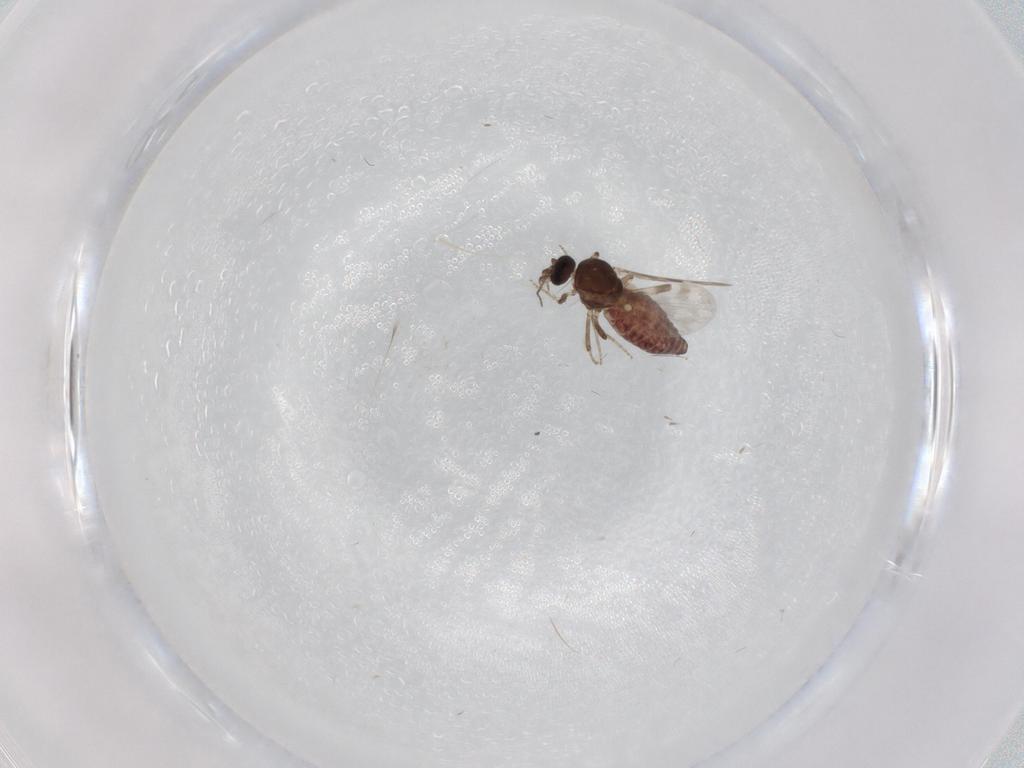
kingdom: Animalia
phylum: Arthropoda
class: Insecta
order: Diptera
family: Ceratopogonidae
